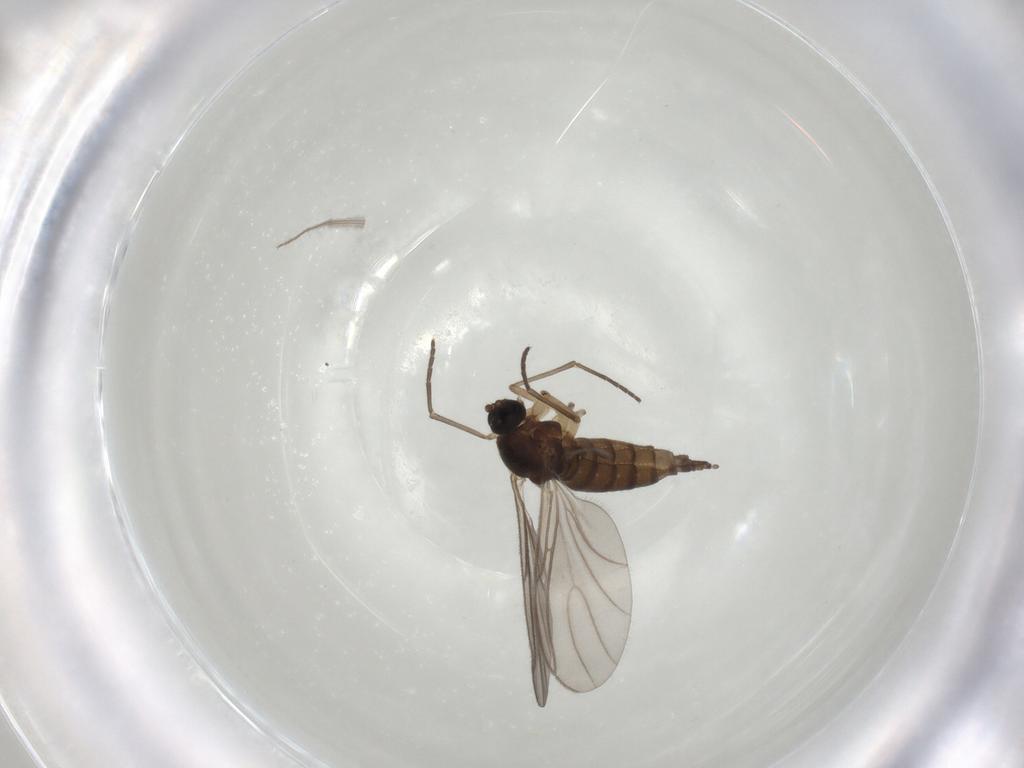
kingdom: Animalia
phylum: Arthropoda
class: Insecta
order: Diptera
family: Sciaridae
